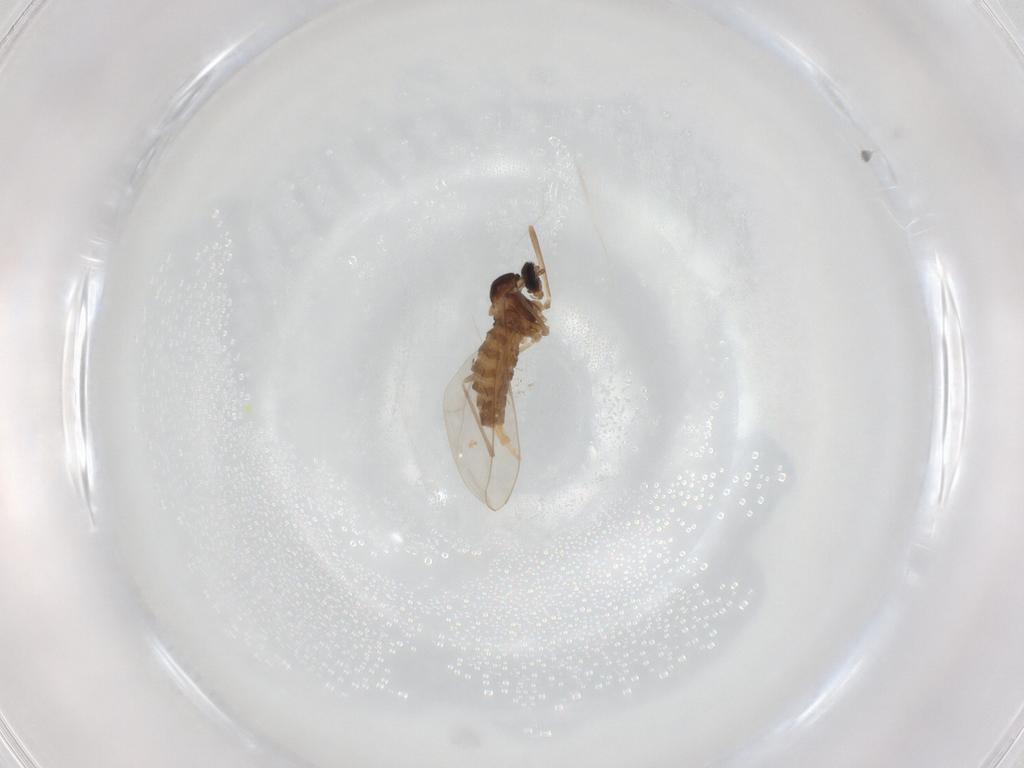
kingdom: Animalia
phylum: Arthropoda
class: Insecta
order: Diptera
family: Cecidomyiidae
